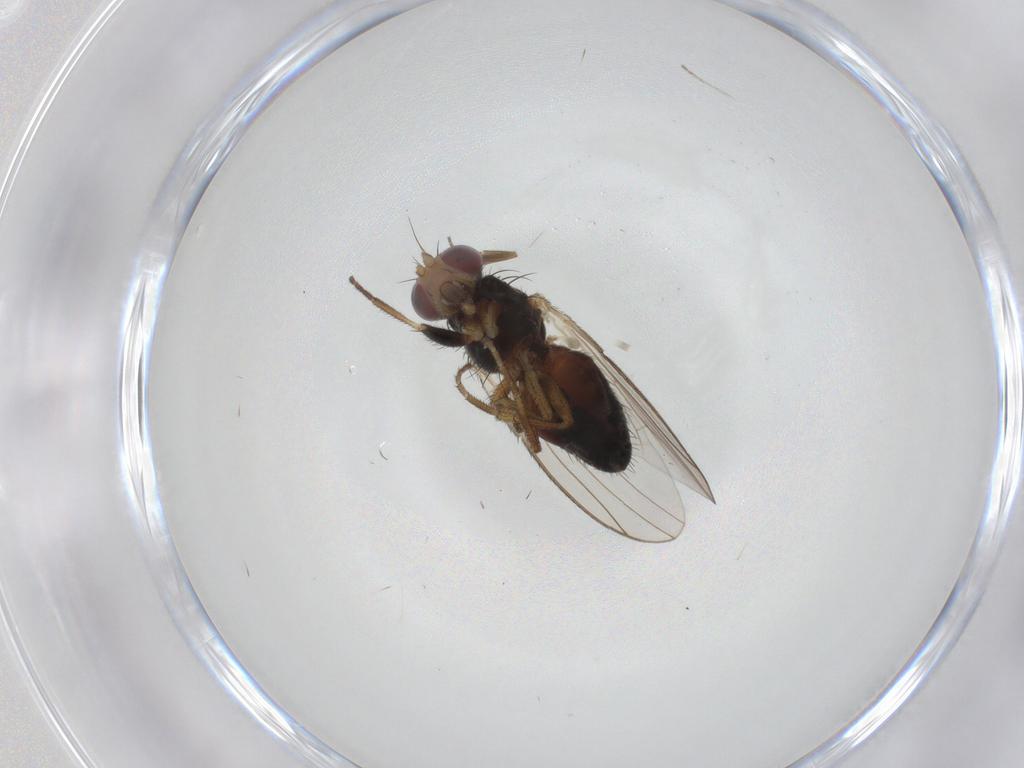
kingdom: Animalia
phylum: Arthropoda
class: Insecta
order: Diptera
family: Heleomyzidae
